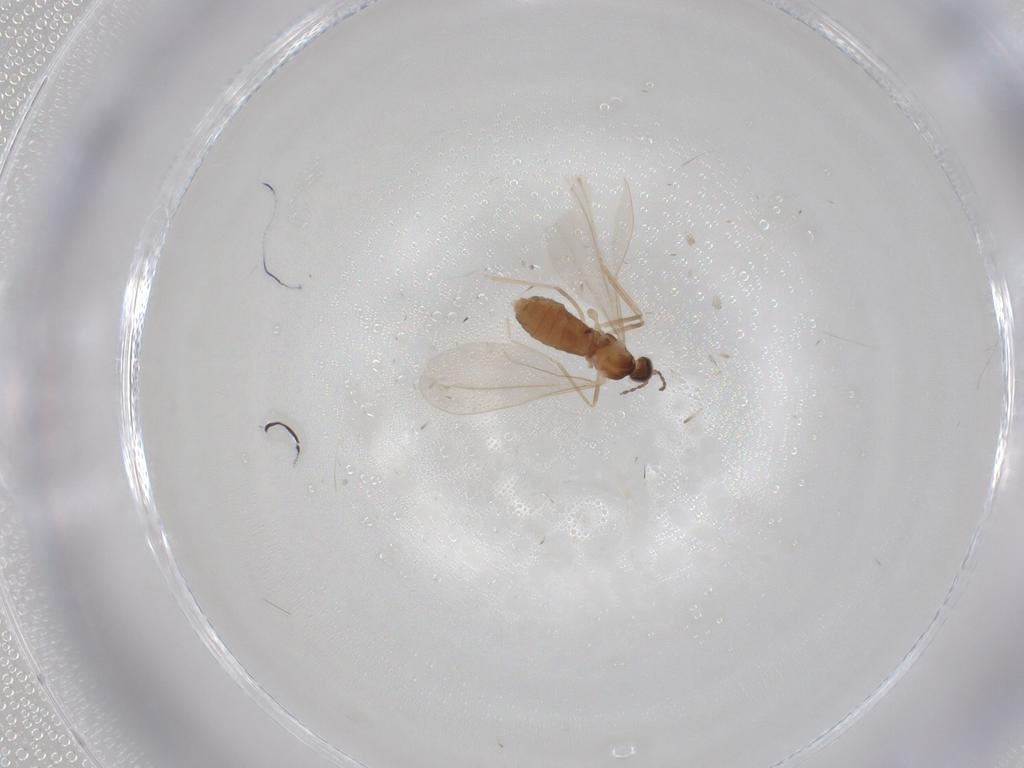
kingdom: Animalia
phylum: Arthropoda
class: Insecta
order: Diptera
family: Cecidomyiidae
